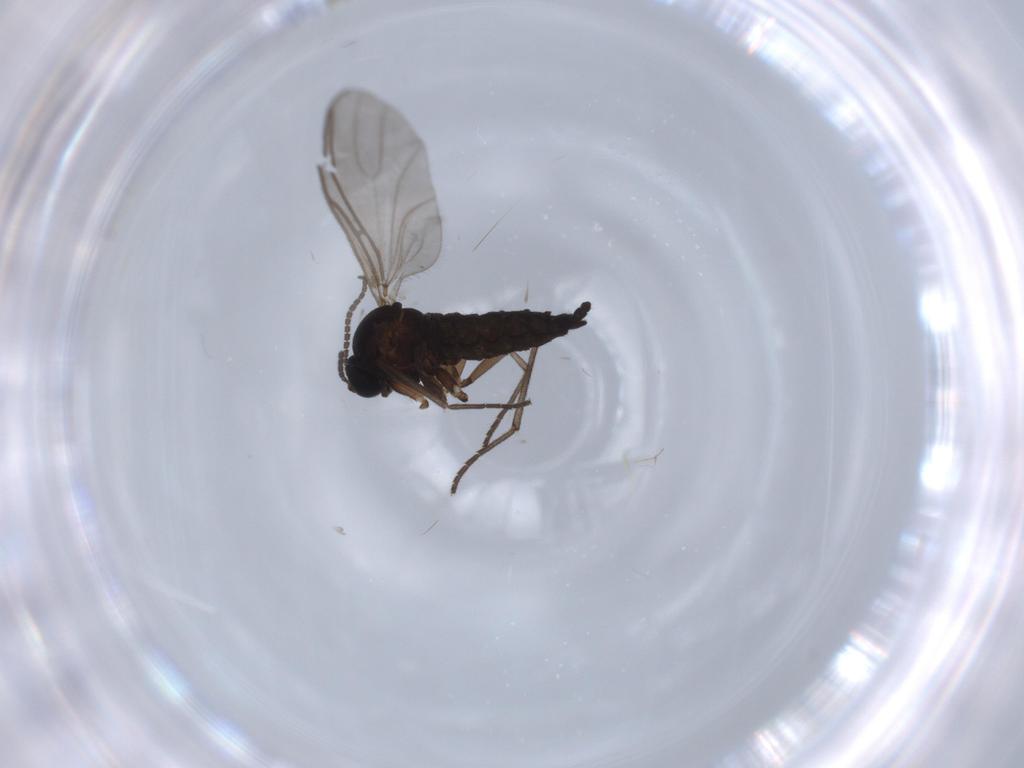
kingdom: Animalia
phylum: Arthropoda
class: Insecta
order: Diptera
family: Sciaridae
